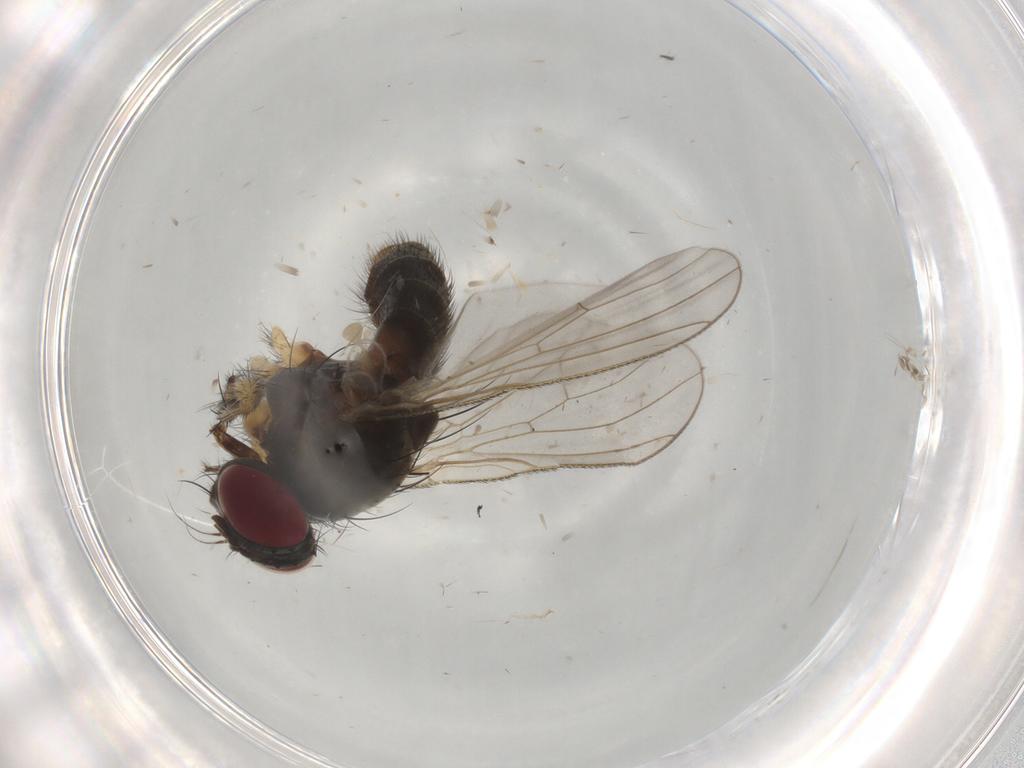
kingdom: Animalia
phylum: Arthropoda
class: Insecta
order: Diptera
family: Muscidae
